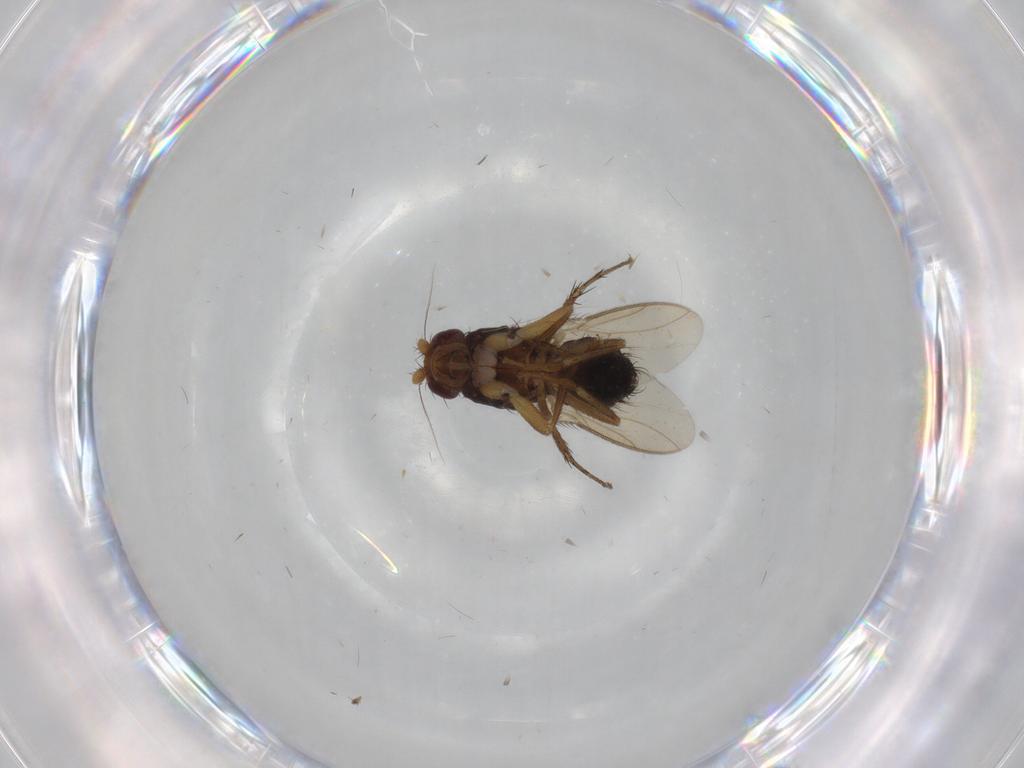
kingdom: Animalia
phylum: Arthropoda
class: Insecta
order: Diptera
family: Sphaeroceridae
